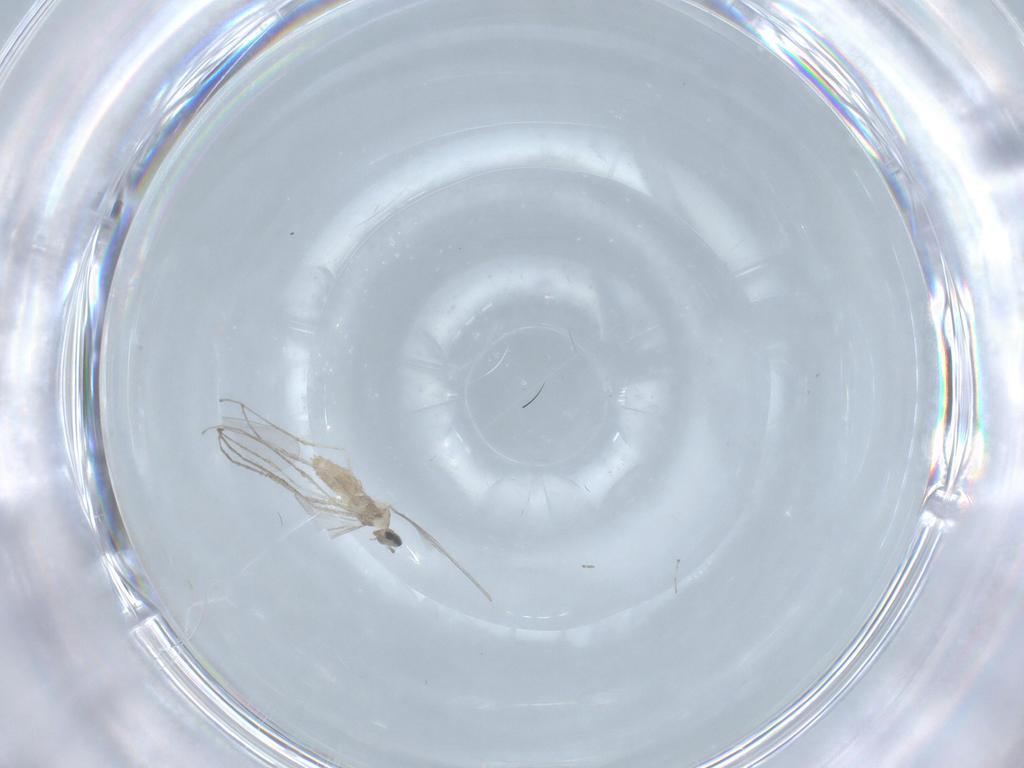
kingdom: Animalia
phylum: Arthropoda
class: Insecta
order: Diptera
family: Cecidomyiidae
